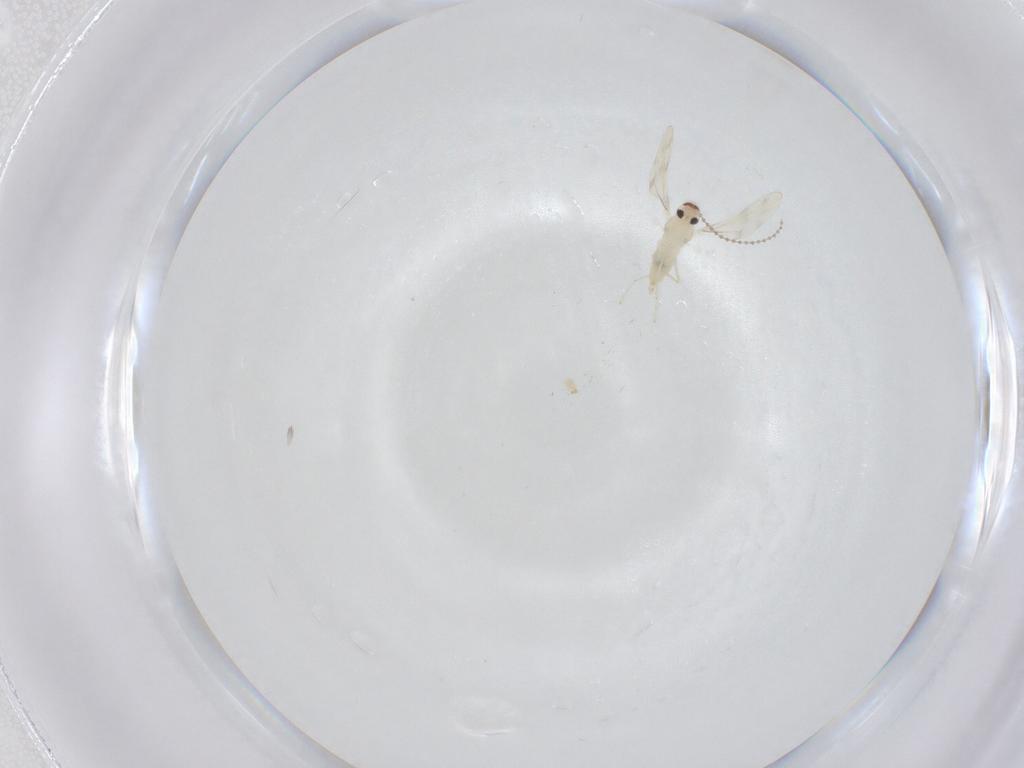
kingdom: Animalia
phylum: Arthropoda
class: Insecta
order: Diptera
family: Cecidomyiidae
